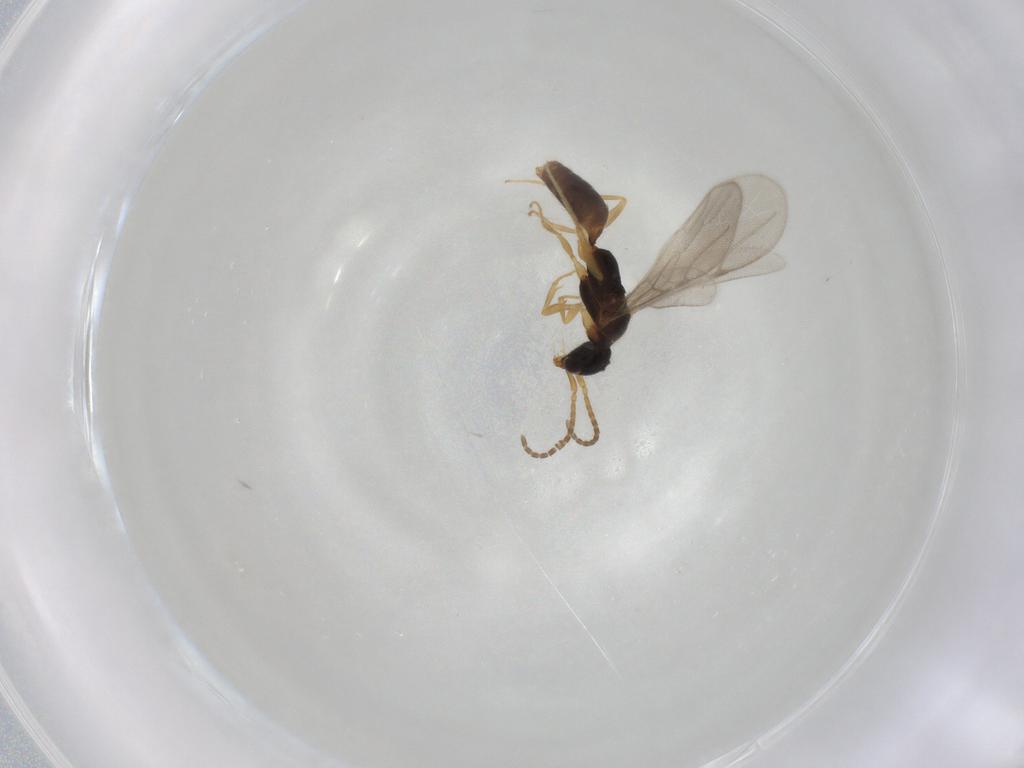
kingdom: Animalia
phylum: Arthropoda
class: Insecta
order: Hymenoptera
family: Bethylidae
